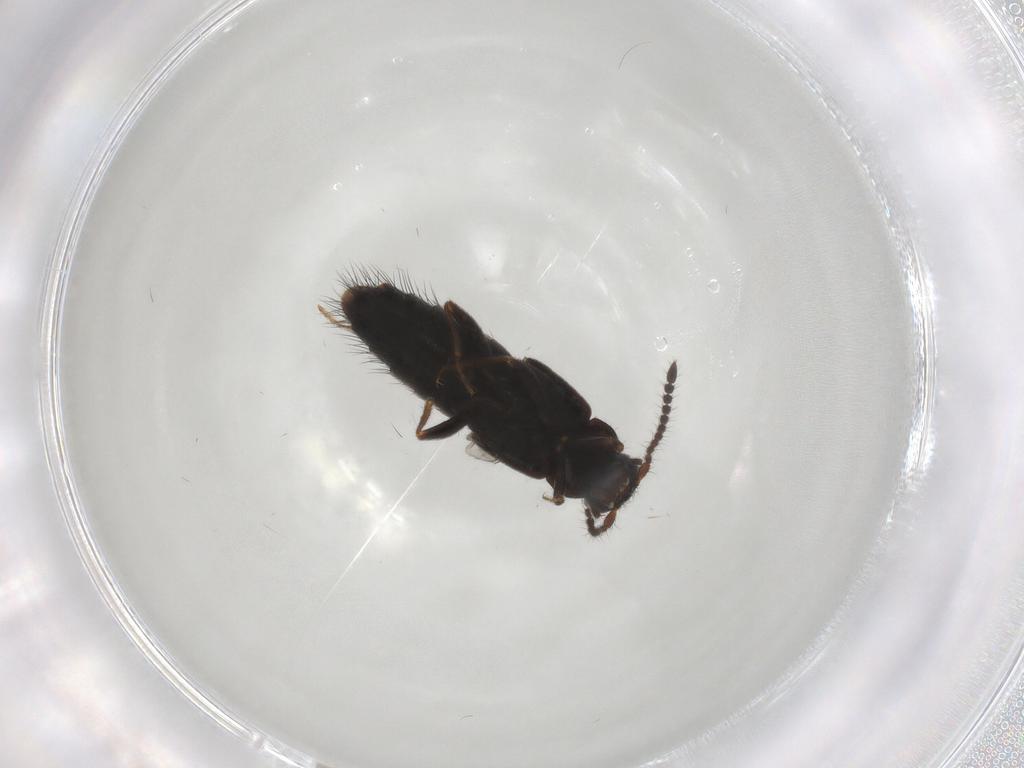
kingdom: Animalia
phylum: Arthropoda
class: Insecta
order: Coleoptera
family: Staphylinidae
